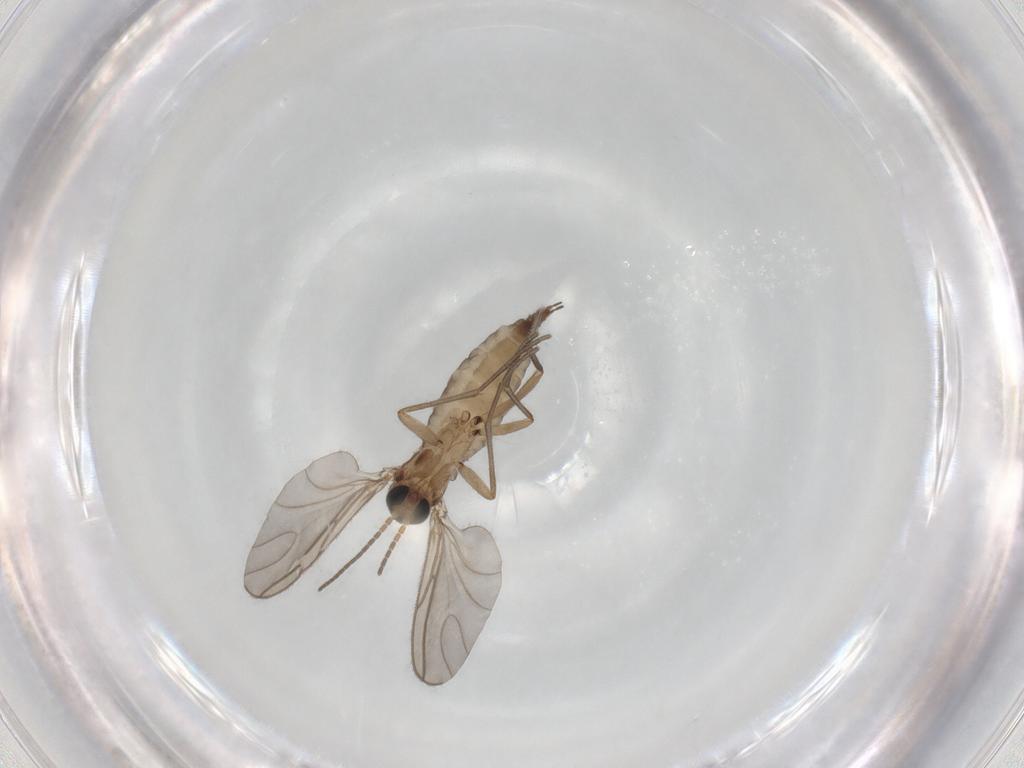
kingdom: Animalia
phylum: Arthropoda
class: Insecta
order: Diptera
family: Sciaridae
